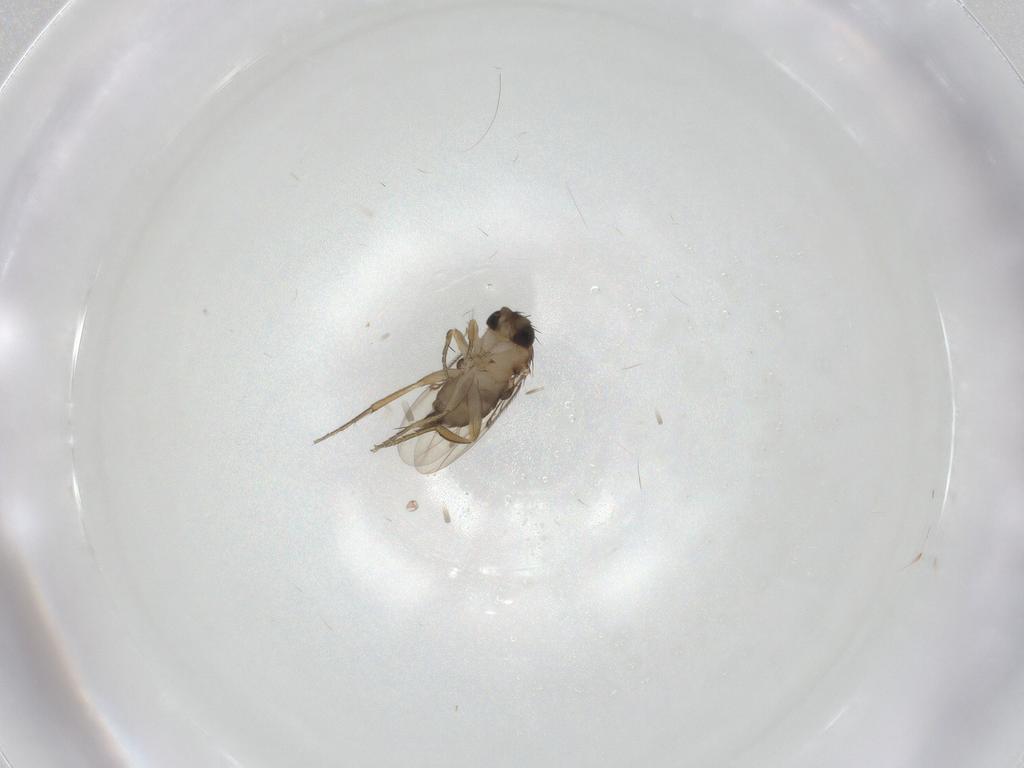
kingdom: Animalia
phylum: Arthropoda
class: Insecta
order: Diptera
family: Phoridae
